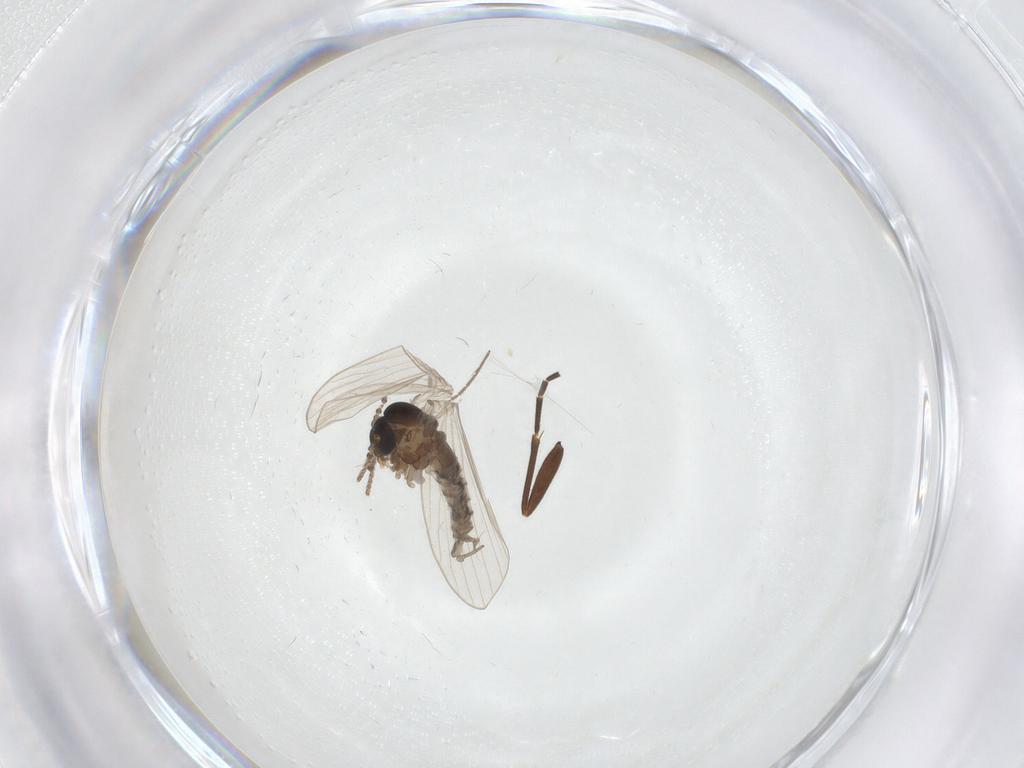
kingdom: Animalia
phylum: Arthropoda
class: Insecta
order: Diptera
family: Sciaridae
